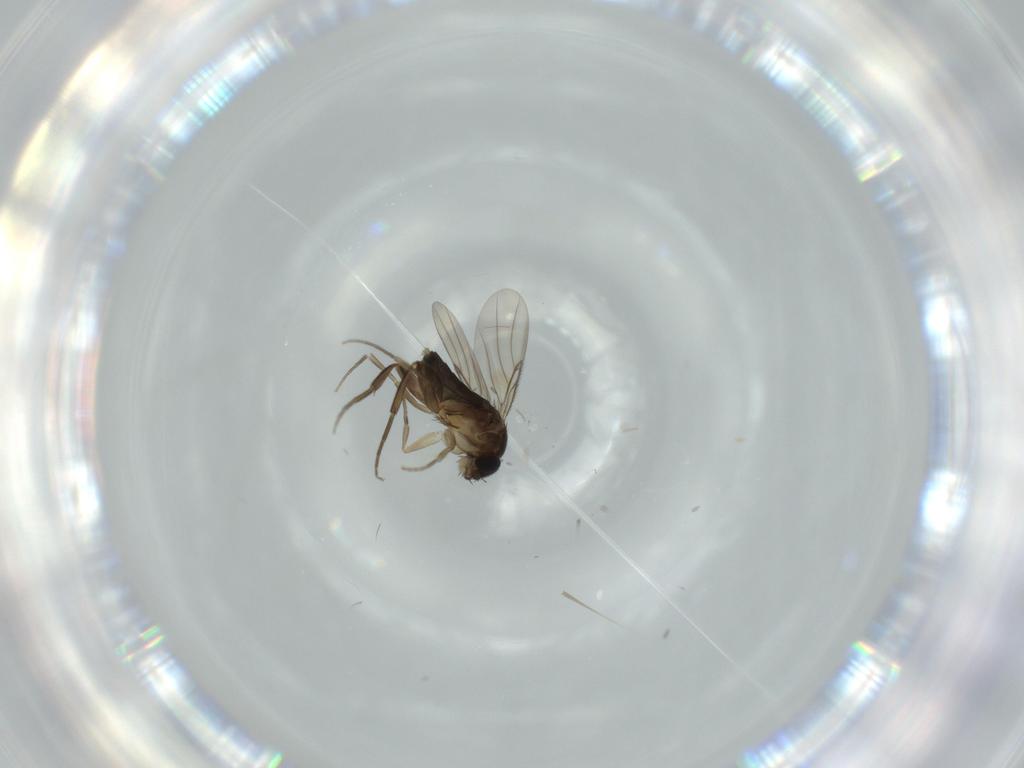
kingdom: Animalia
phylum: Arthropoda
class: Insecta
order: Diptera
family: Phoridae
